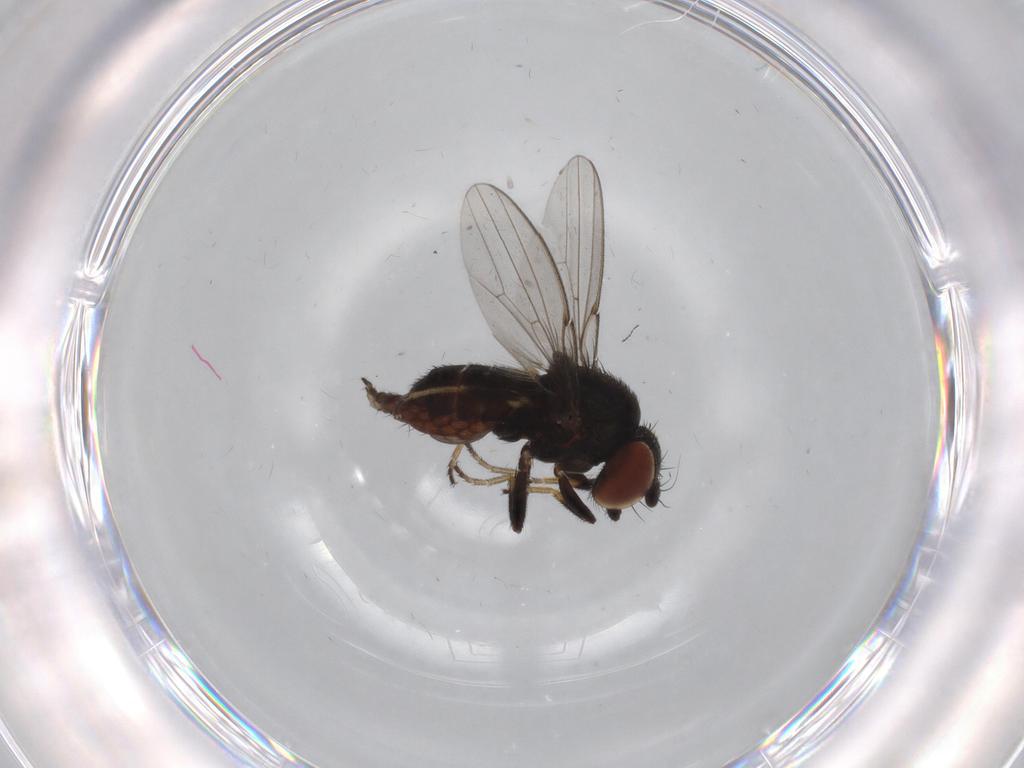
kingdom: Animalia
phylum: Arthropoda
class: Insecta
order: Diptera
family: Milichiidae
